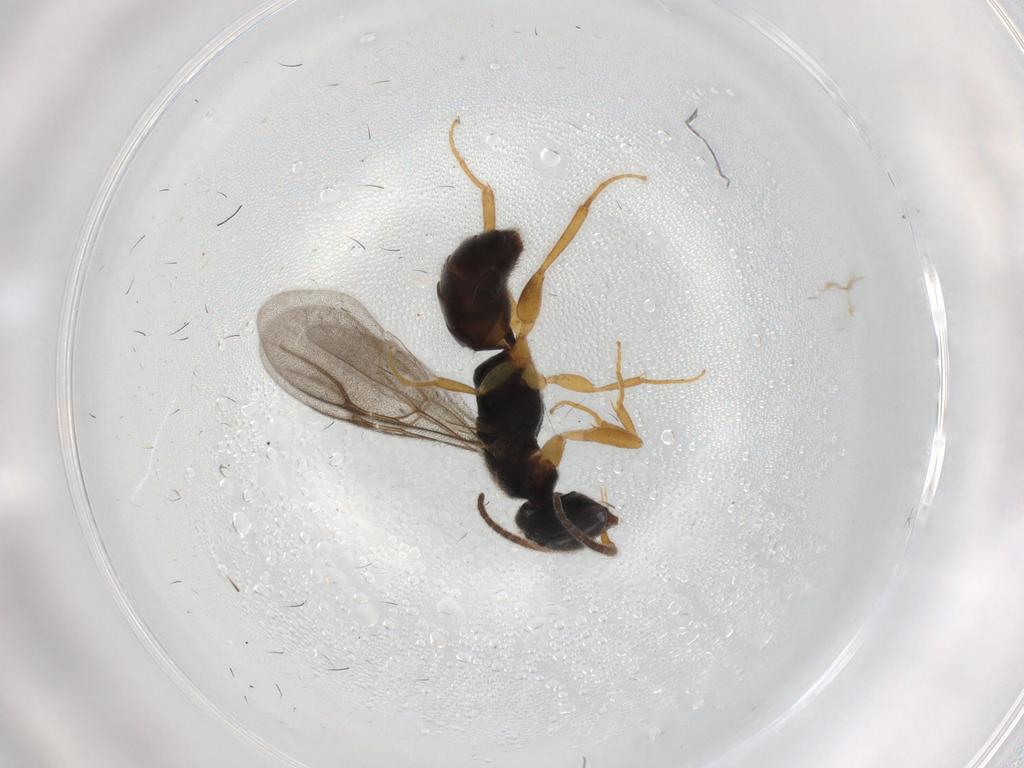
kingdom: Animalia
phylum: Arthropoda
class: Insecta
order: Hymenoptera
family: Bethylidae
